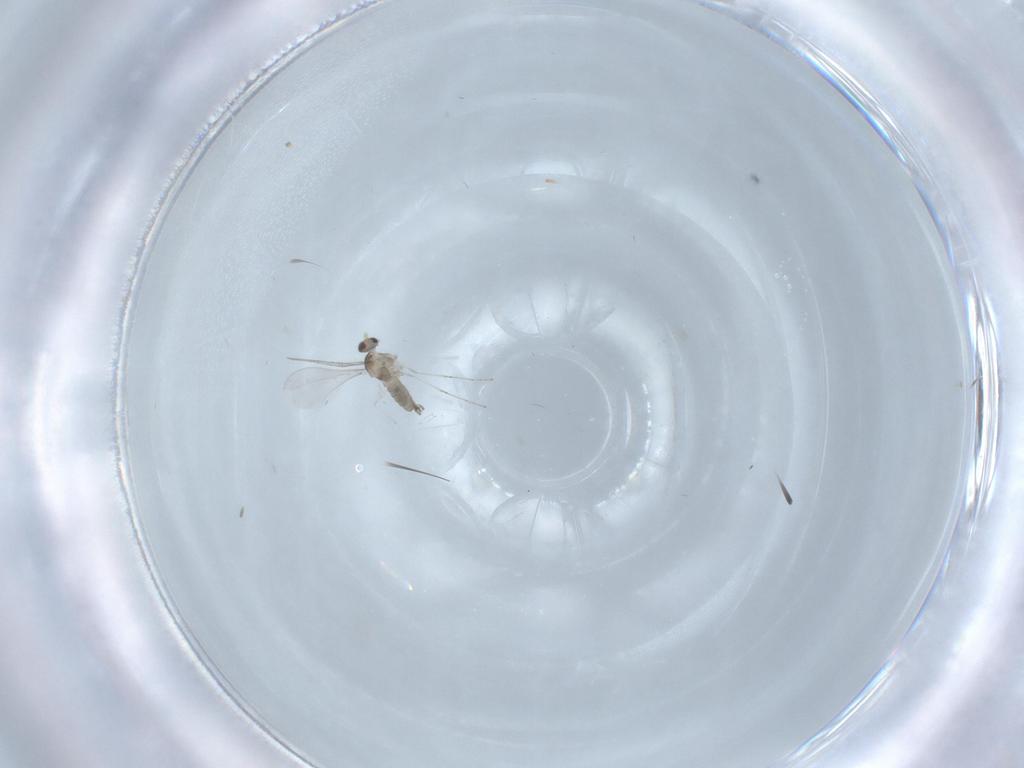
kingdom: Animalia
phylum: Arthropoda
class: Insecta
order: Diptera
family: Cecidomyiidae
